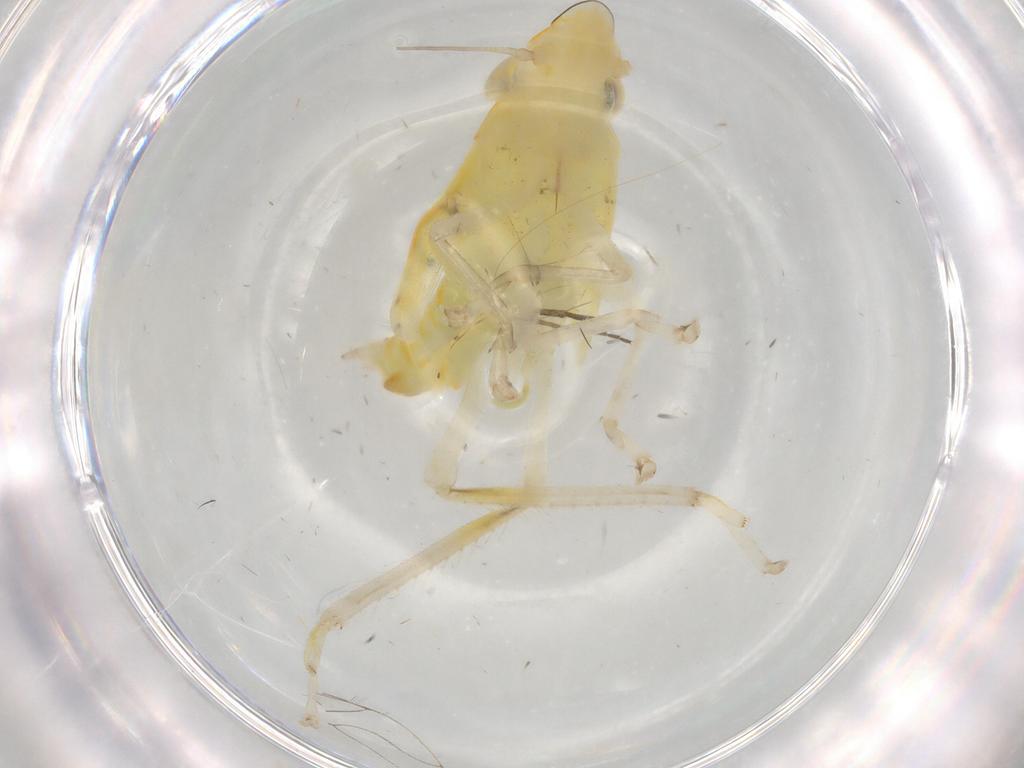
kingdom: Animalia
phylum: Arthropoda
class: Insecta
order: Hemiptera
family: Cicadellidae
